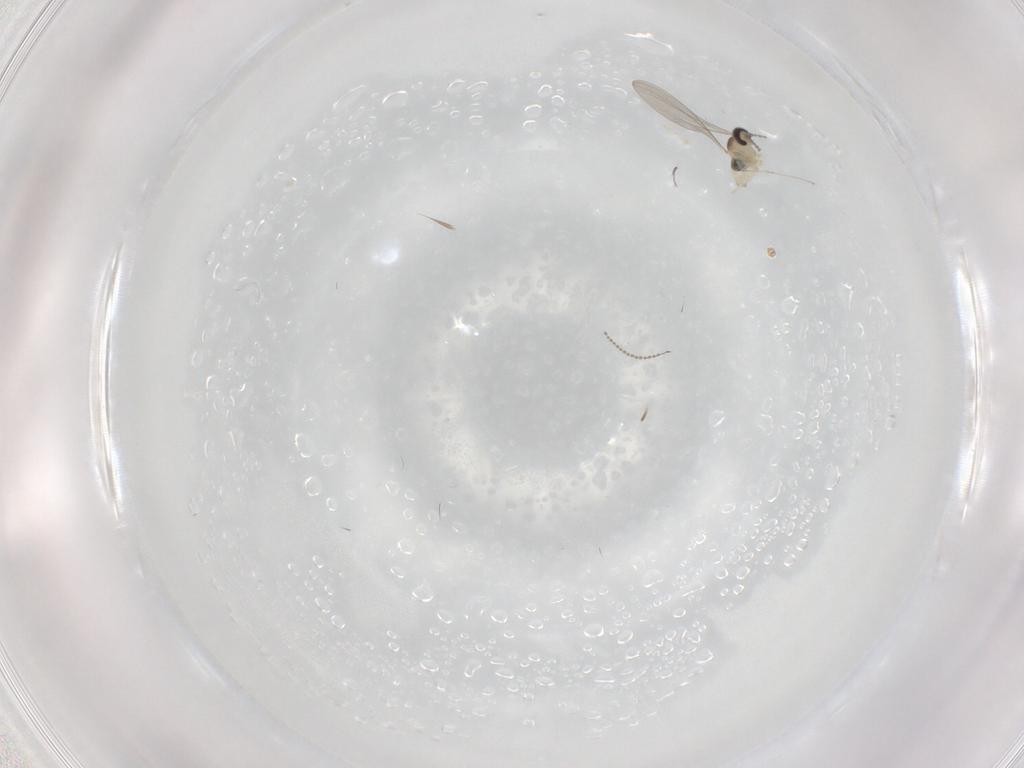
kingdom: Animalia
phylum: Arthropoda
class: Insecta
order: Diptera
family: Cecidomyiidae
